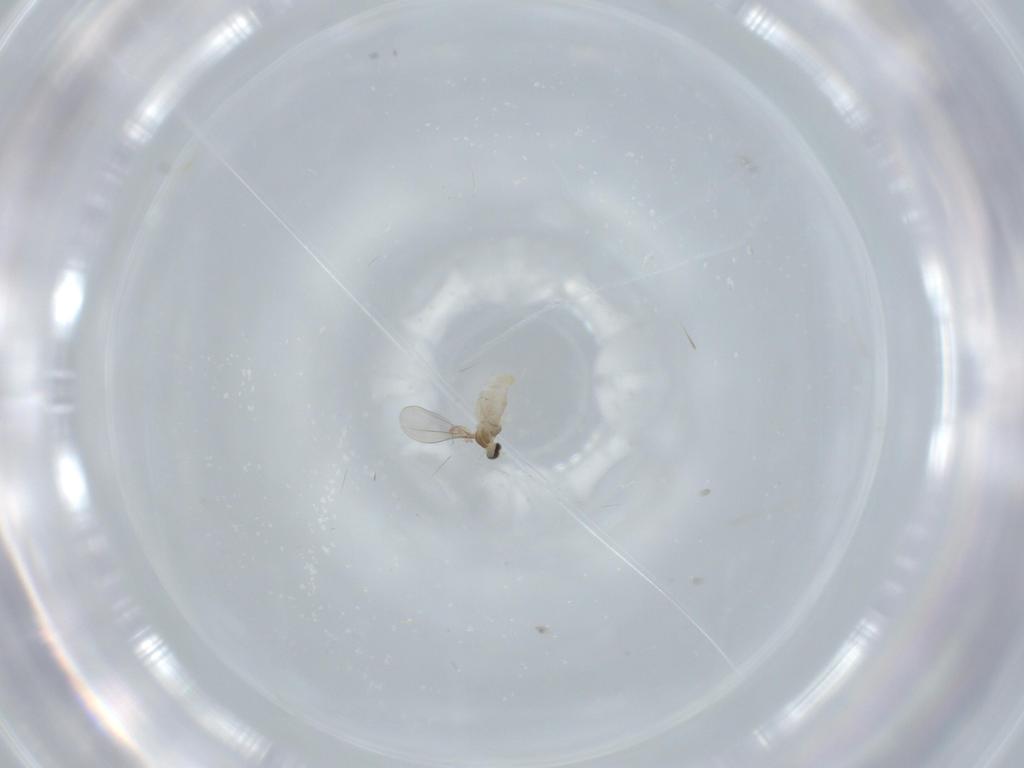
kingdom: Animalia
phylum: Arthropoda
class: Insecta
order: Diptera
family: Cecidomyiidae
